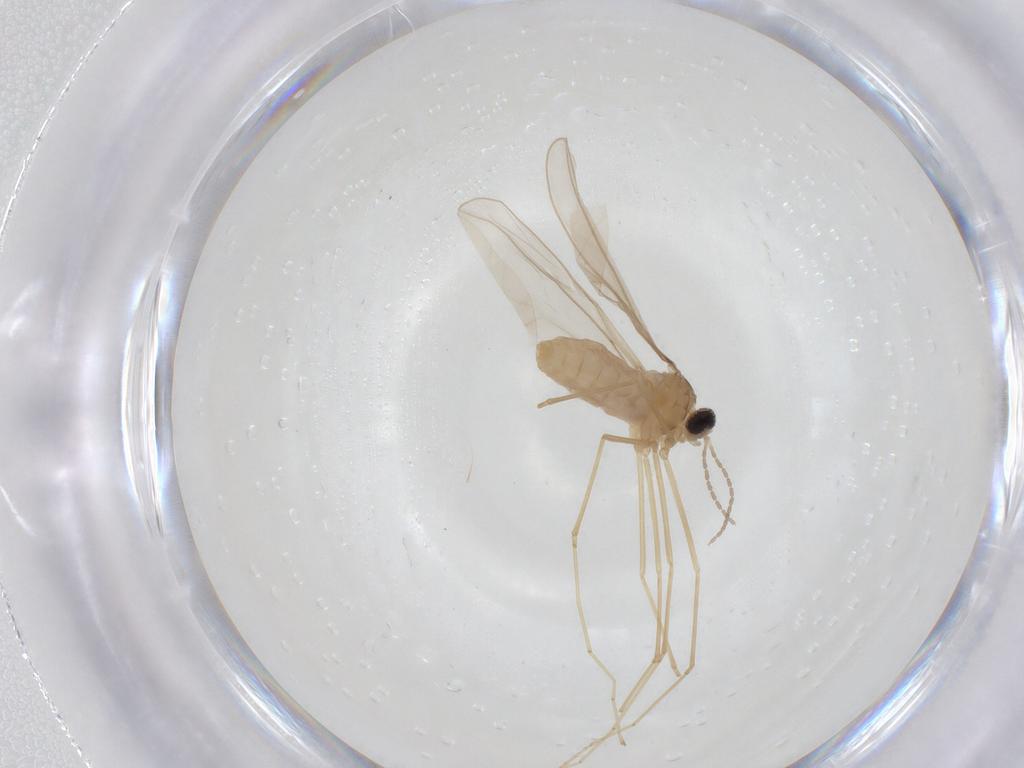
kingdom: Animalia
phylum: Arthropoda
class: Insecta
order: Diptera
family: Cecidomyiidae
